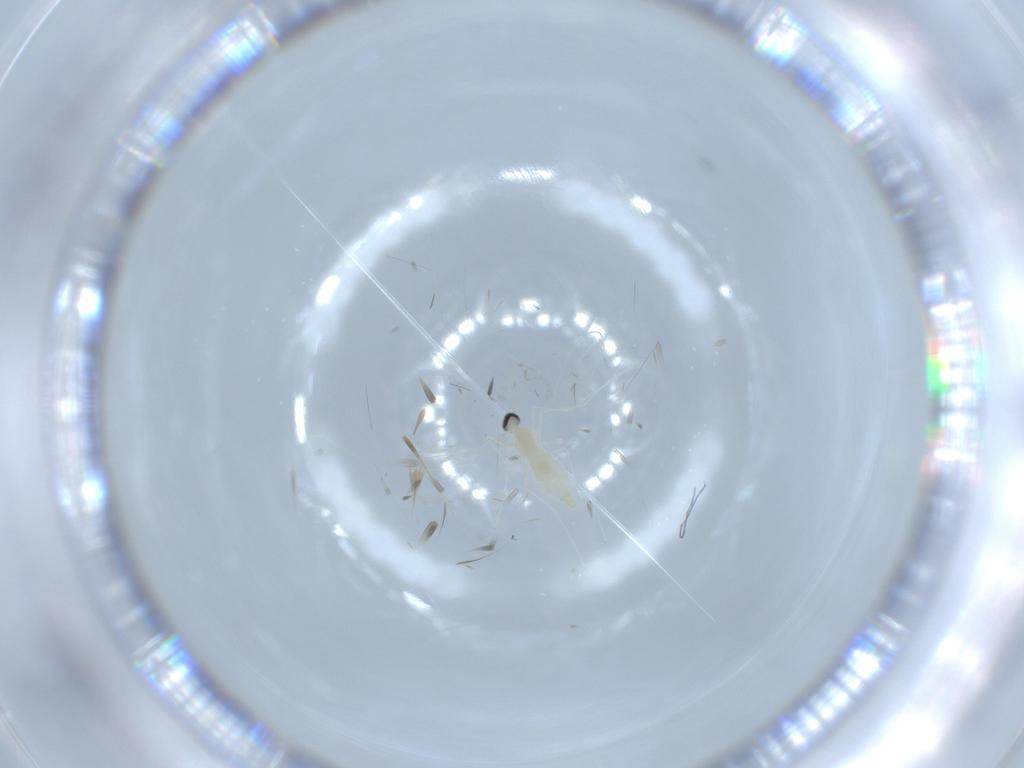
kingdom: Animalia
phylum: Arthropoda
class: Insecta
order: Diptera
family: Cecidomyiidae
